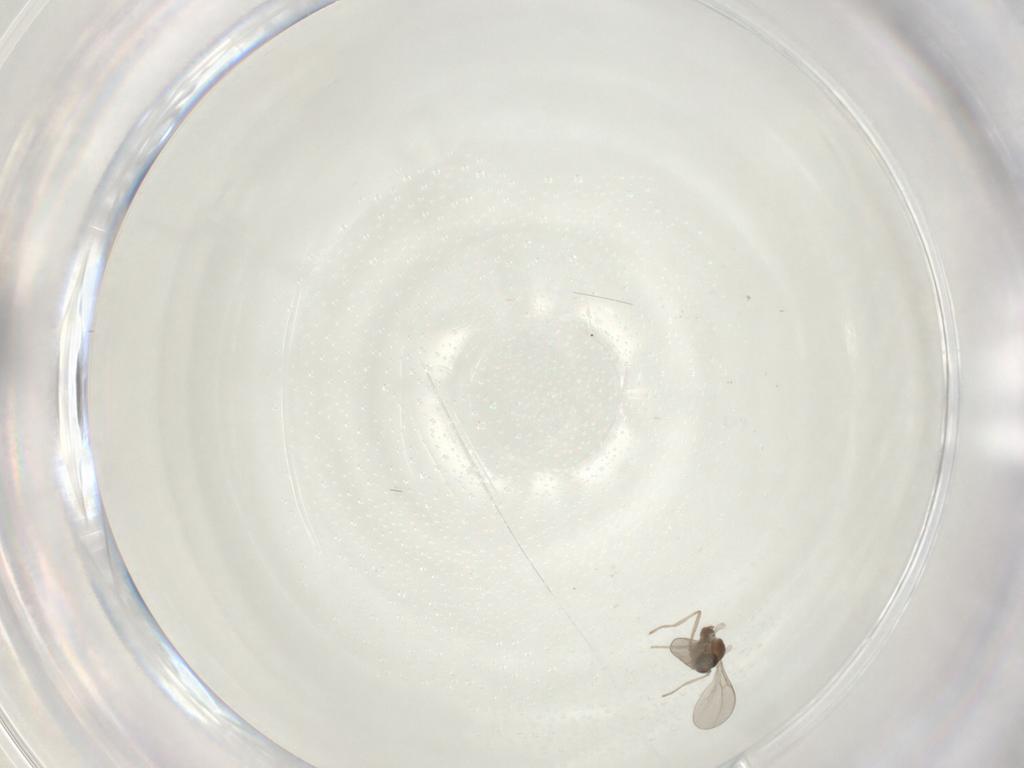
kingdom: Animalia
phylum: Arthropoda
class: Insecta
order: Diptera
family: Cecidomyiidae
